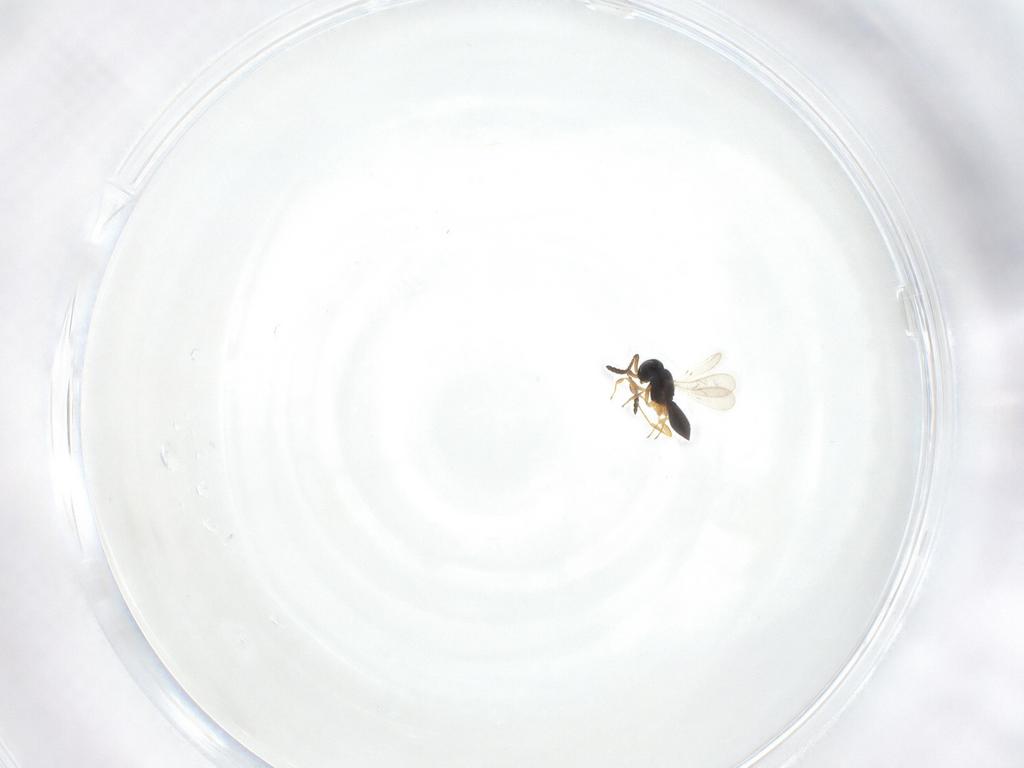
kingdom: Animalia
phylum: Arthropoda
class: Insecta
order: Hymenoptera
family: Scelionidae
